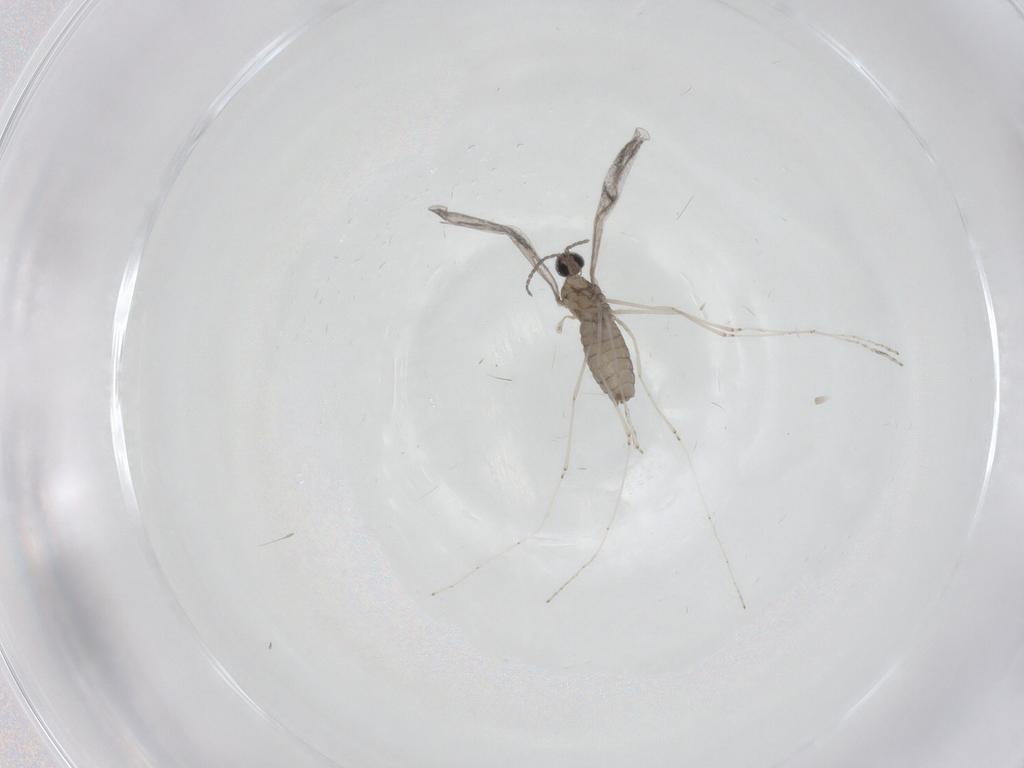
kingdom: Animalia
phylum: Arthropoda
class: Insecta
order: Diptera
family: Cecidomyiidae
